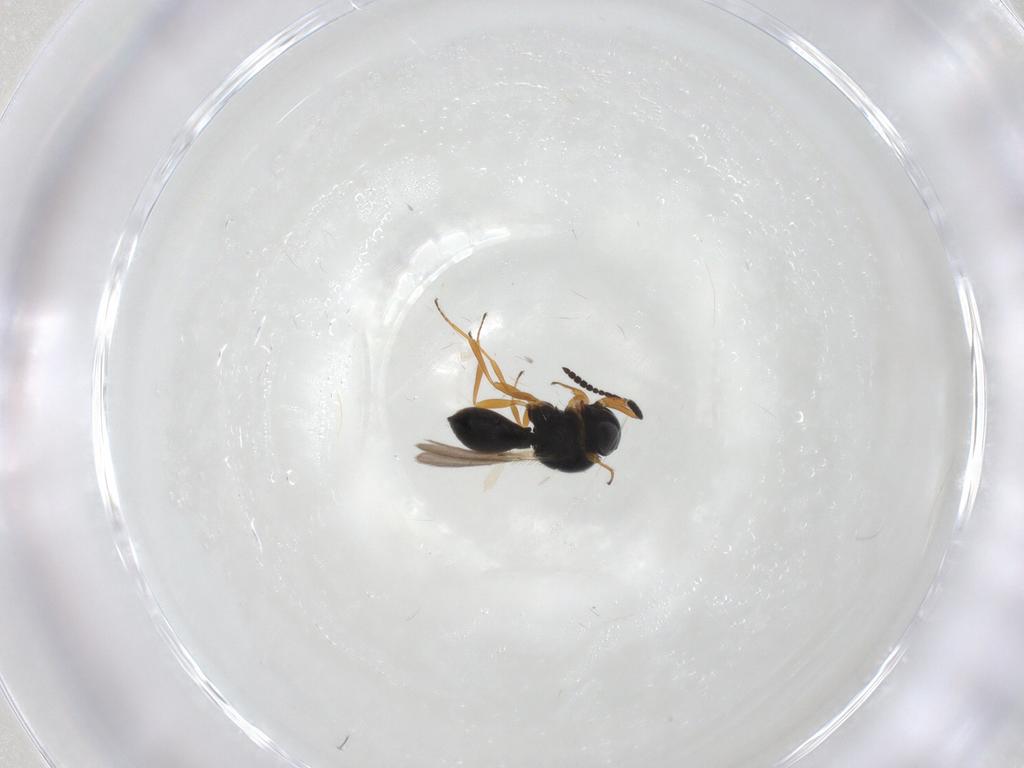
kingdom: Animalia
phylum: Arthropoda
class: Insecta
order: Hymenoptera
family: Scelionidae
